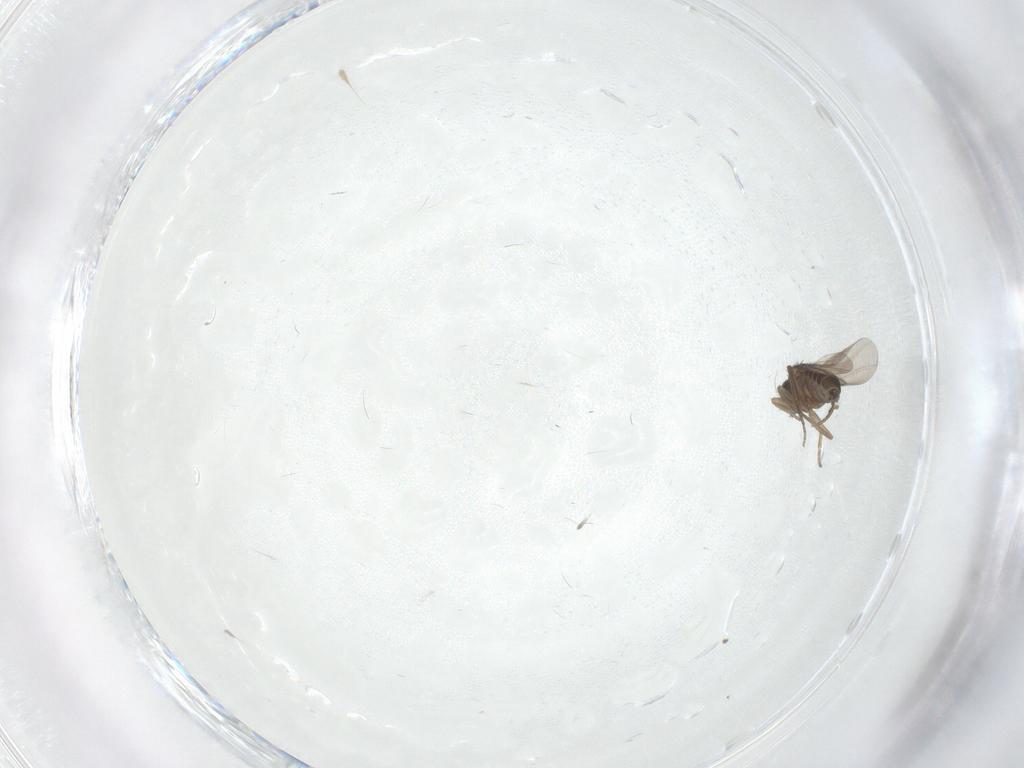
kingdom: Animalia
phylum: Arthropoda
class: Insecta
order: Diptera
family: Phoridae
